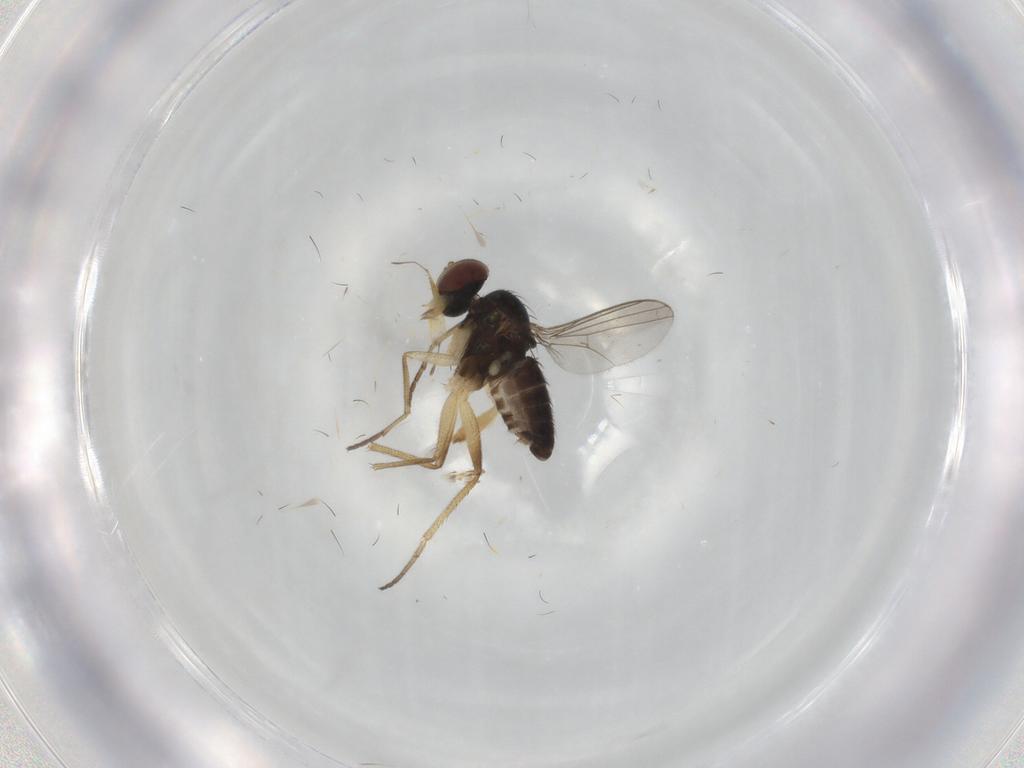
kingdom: Animalia
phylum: Arthropoda
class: Insecta
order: Diptera
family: Dolichopodidae
